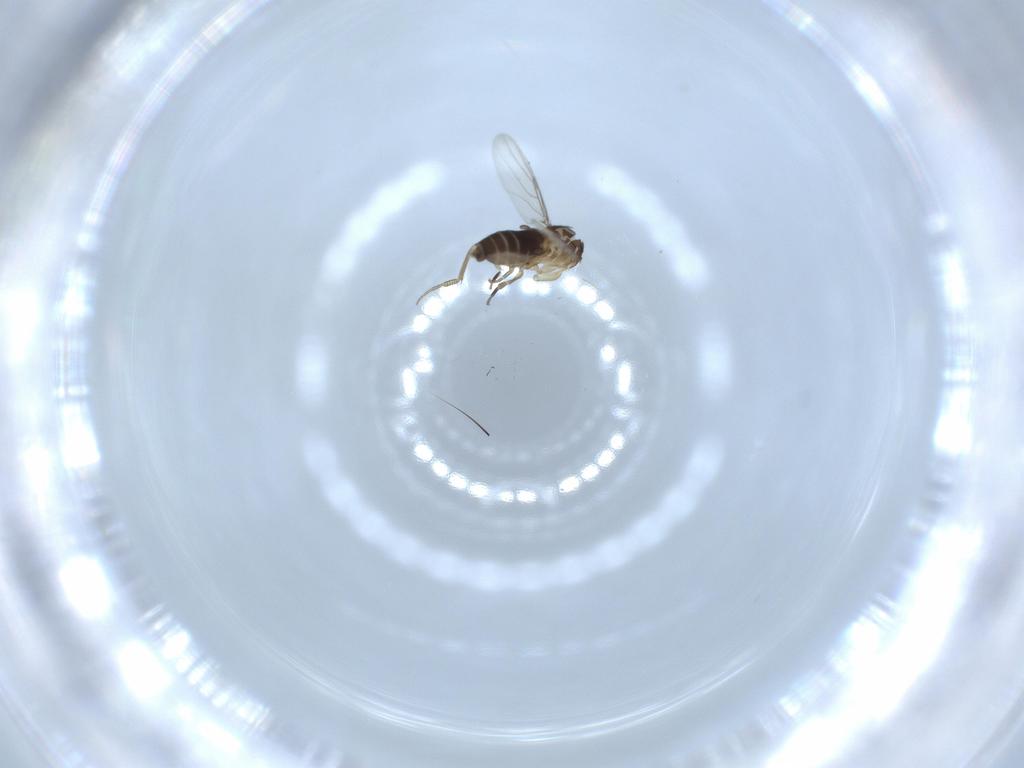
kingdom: Animalia
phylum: Arthropoda
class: Insecta
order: Diptera
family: Phoridae
